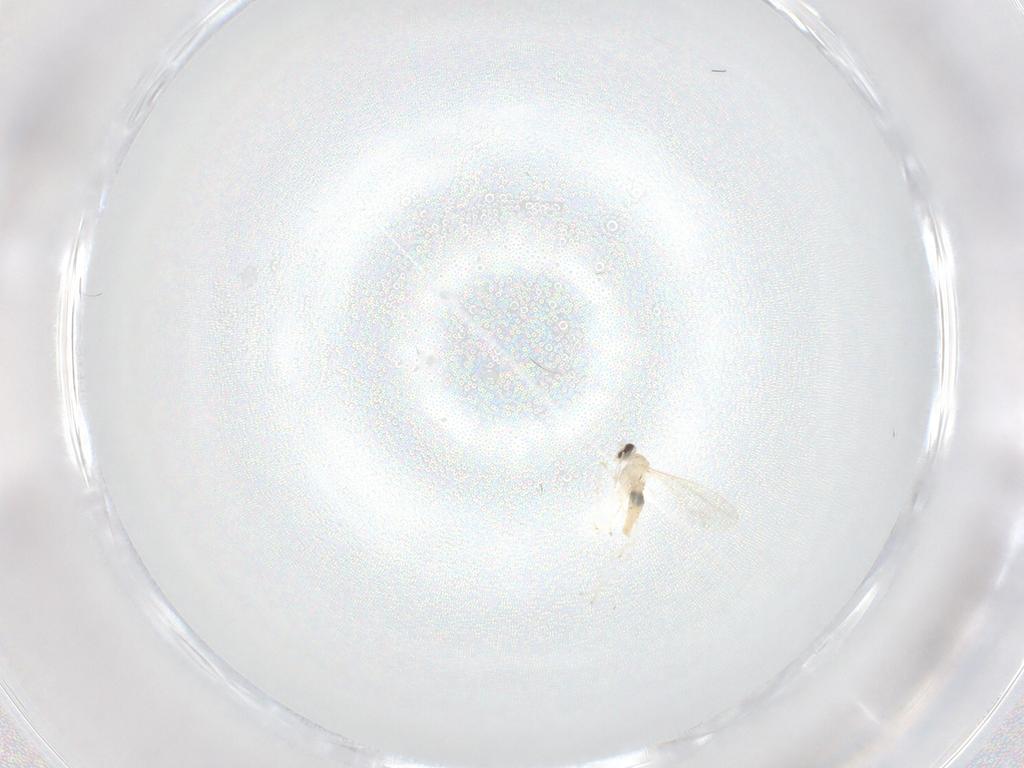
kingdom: Animalia
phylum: Arthropoda
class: Insecta
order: Diptera
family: Sciaridae
